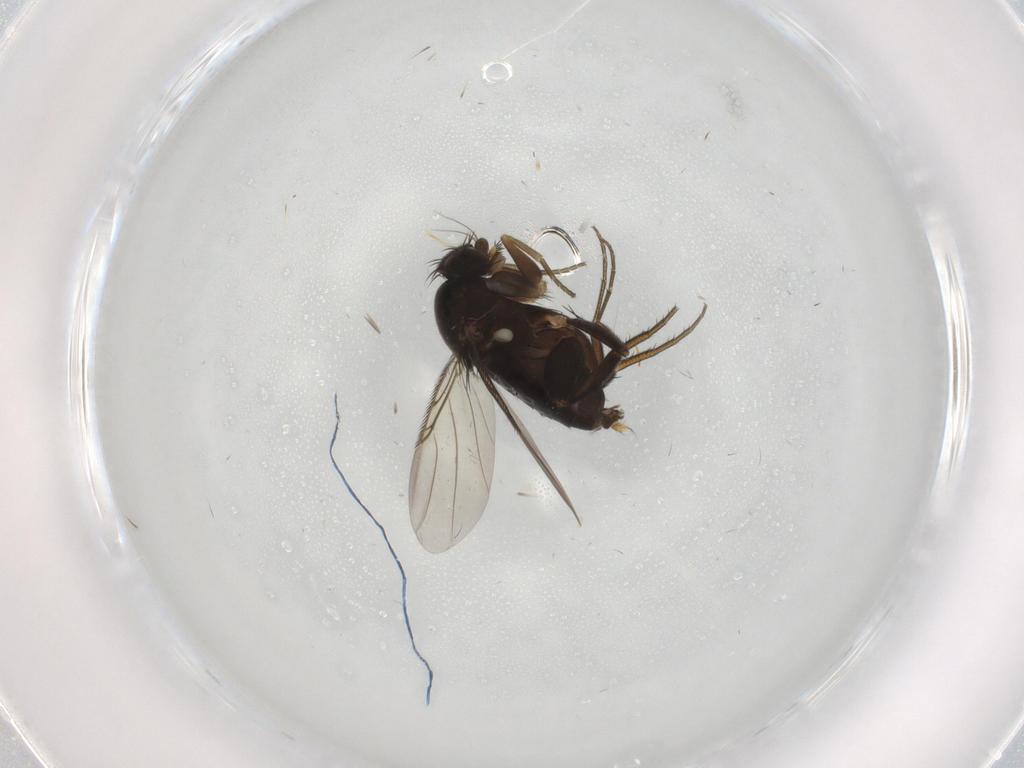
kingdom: Animalia
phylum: Arthropoda
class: Insecta
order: Diptera
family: Phoridae
